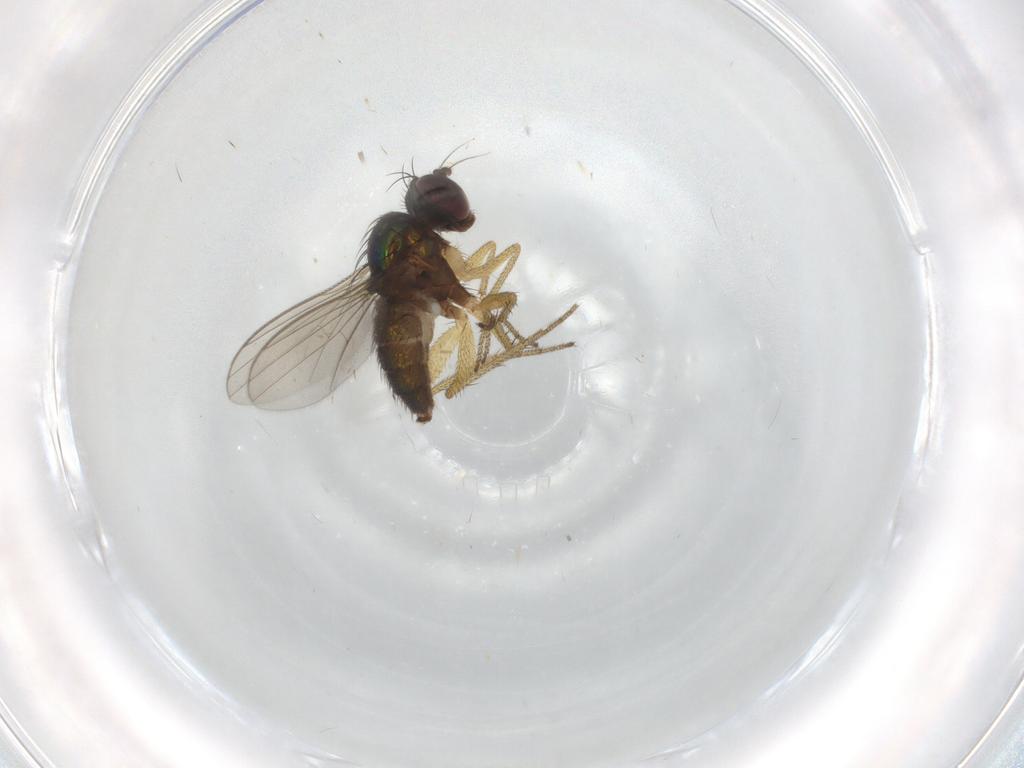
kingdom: Animalia
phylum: Arthropoda
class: Insecta
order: Diptera
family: Dolichopodidae
